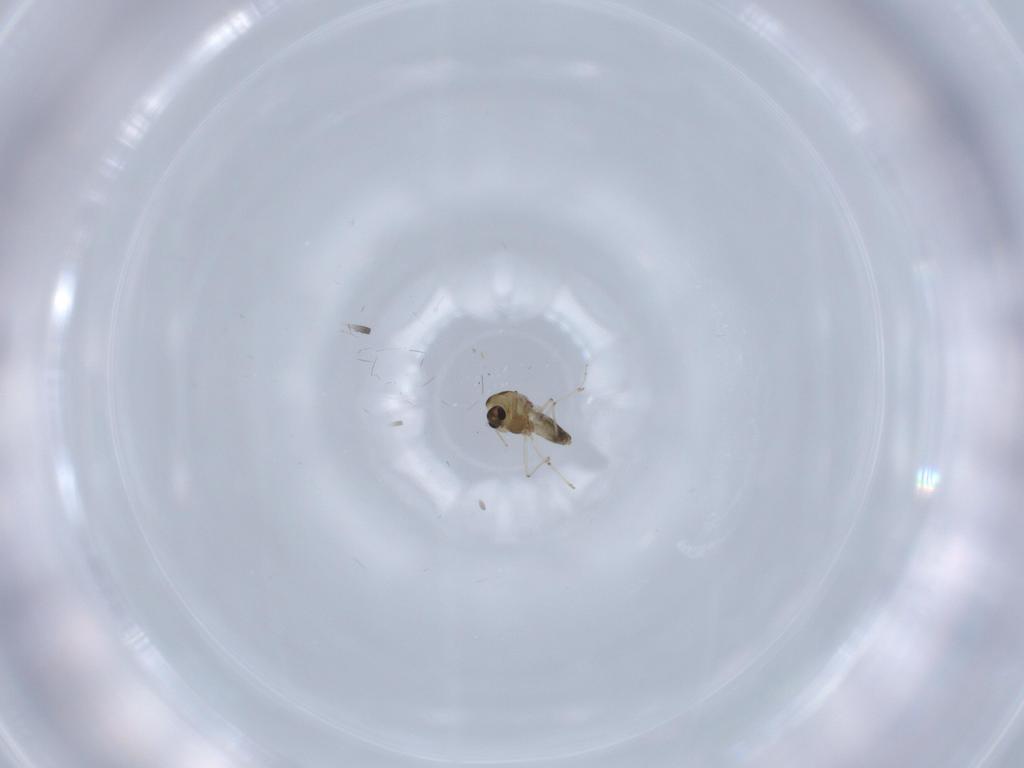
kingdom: Animalia
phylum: Arthropoda
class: Insecta
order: Diptera
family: Chironomidae
